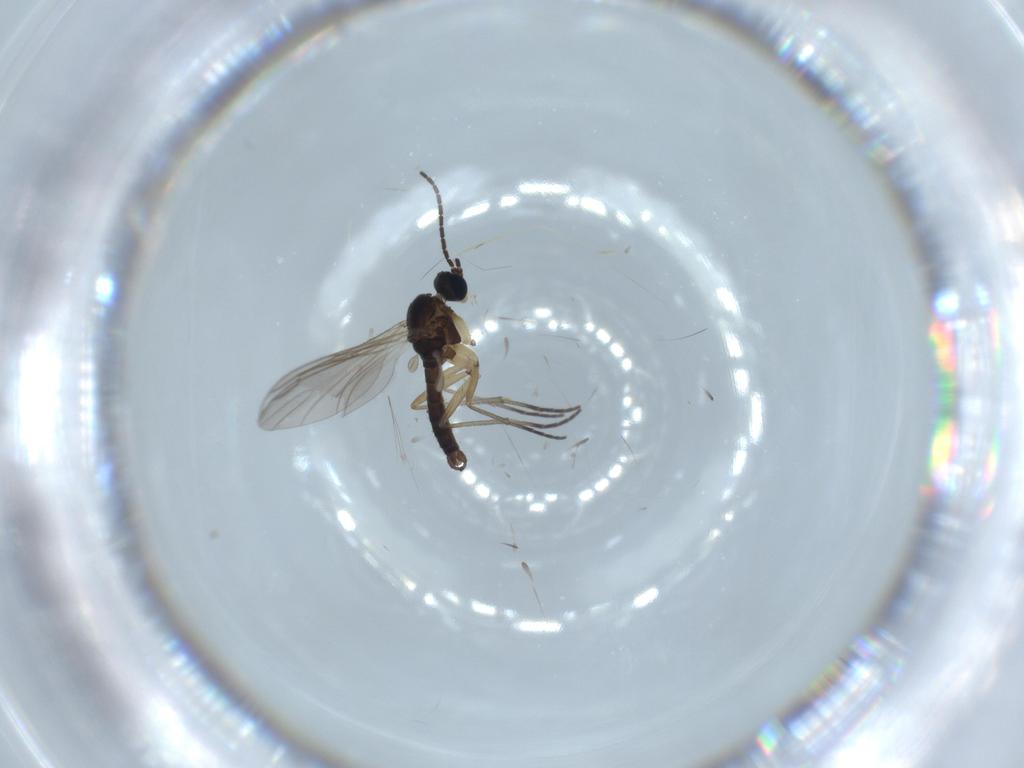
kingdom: Animalia
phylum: Arthropoda
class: Insecta
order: Diptera
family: Sciaridae
